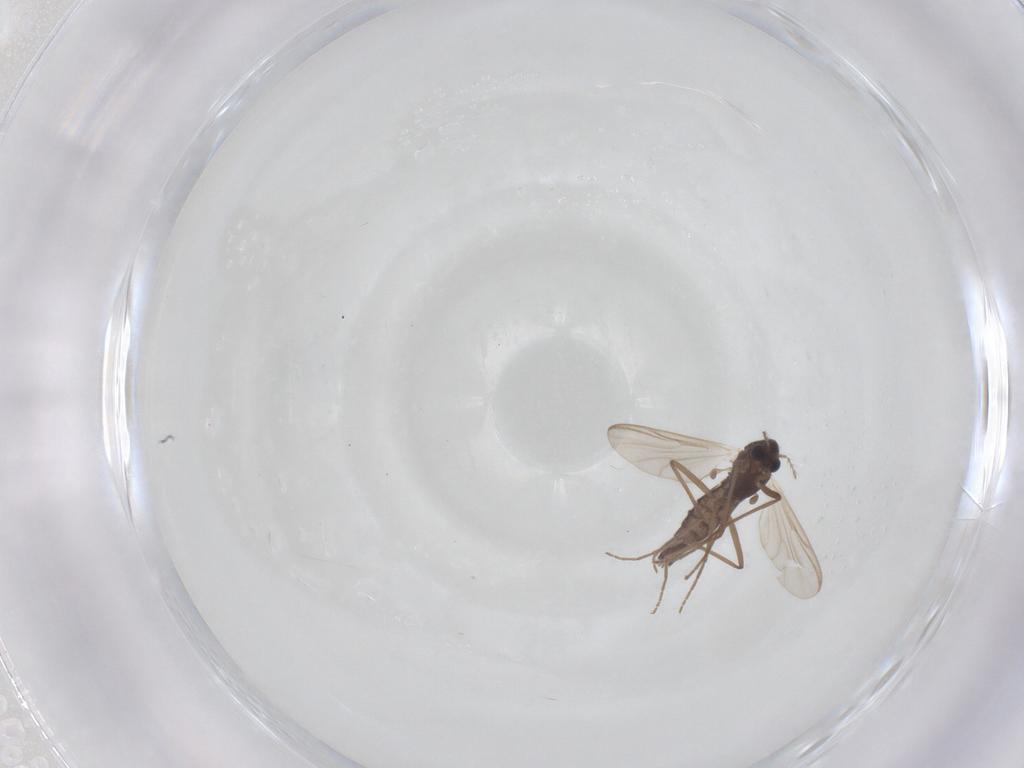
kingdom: Animalia
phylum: Arthropoda
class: Insecta
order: Diptera
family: Chironomidae
